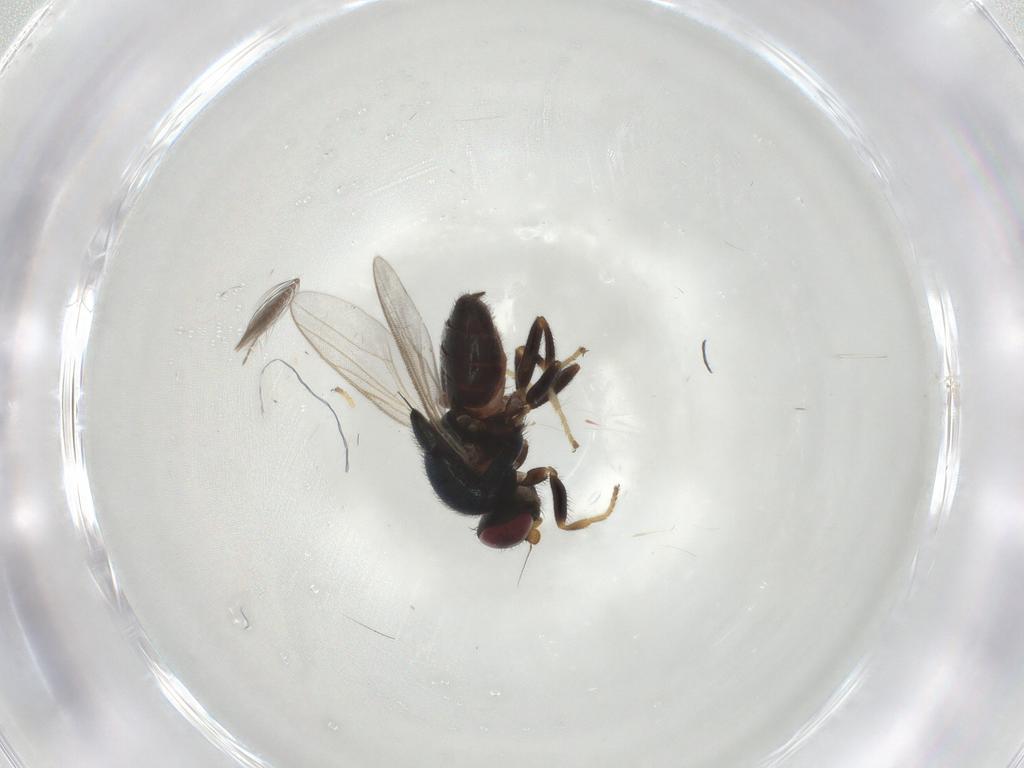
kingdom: Animalia
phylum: Arthropoda
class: Insecta
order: Diptera
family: Chloropidae
